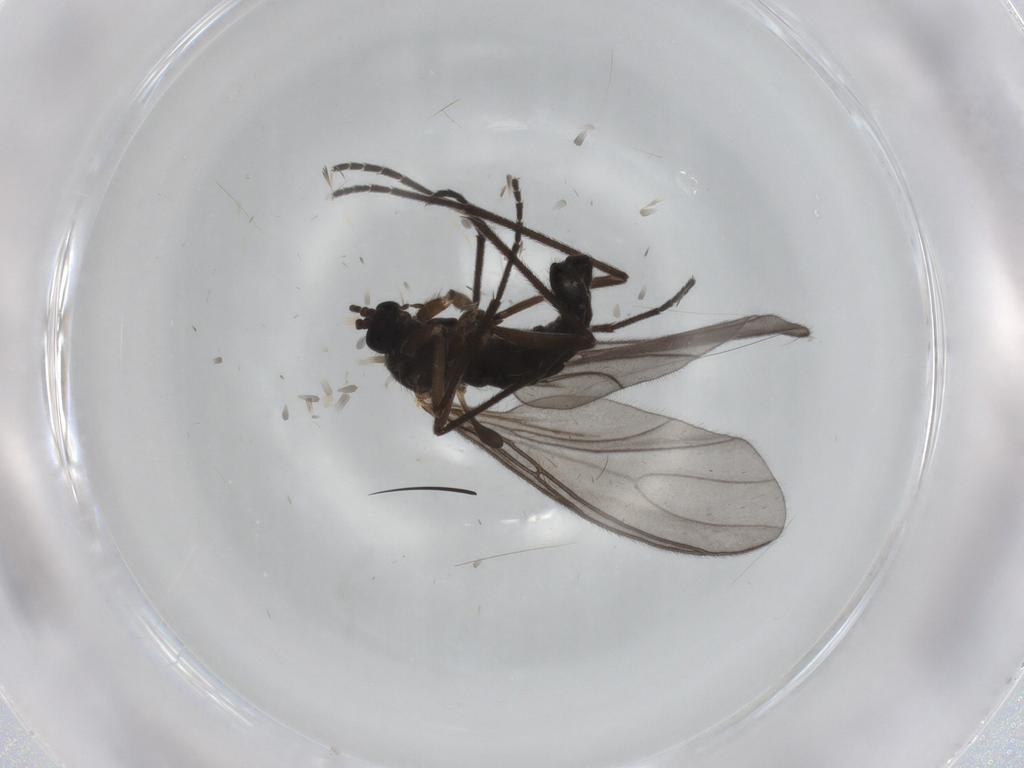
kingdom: Animalia
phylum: Arthropoda
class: Insecta
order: Diptera
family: Sciaridae
